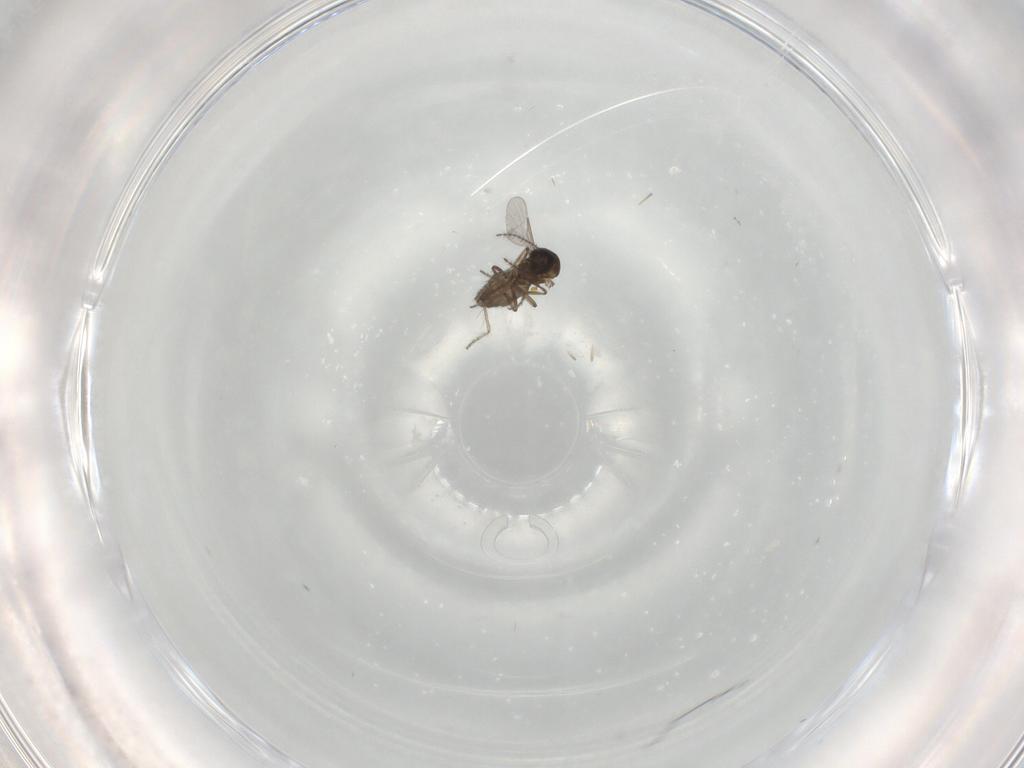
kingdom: Animalia
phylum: Arthropoda
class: Insecta
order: Diptera
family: Ceratopogonidae
